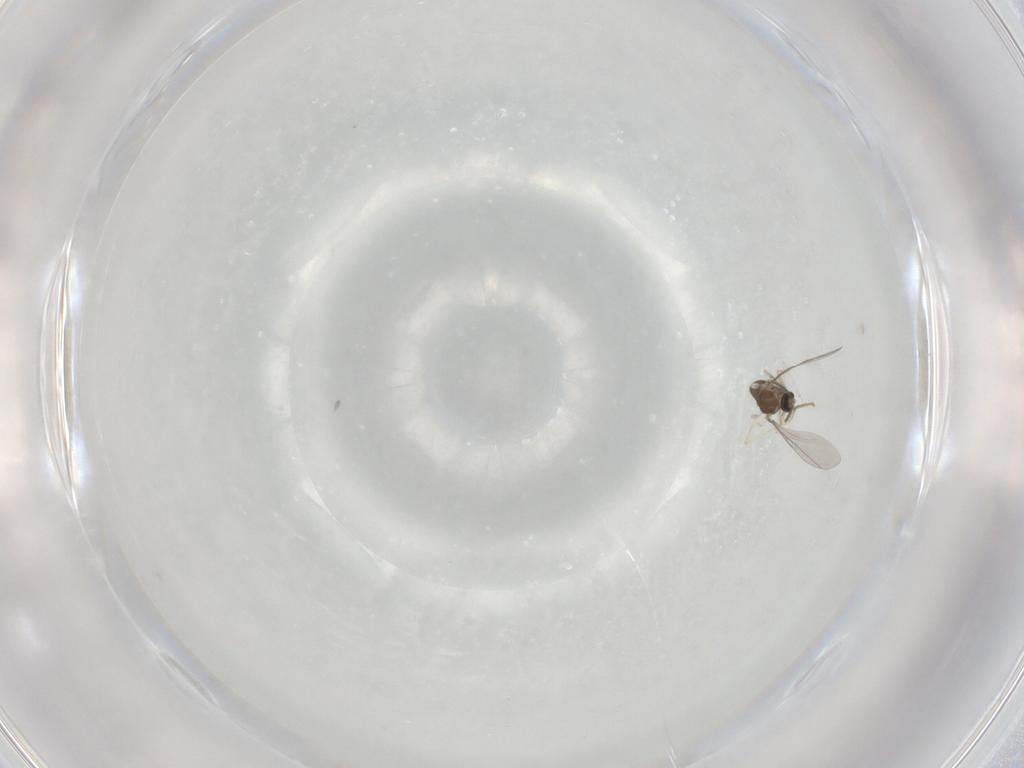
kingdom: Animalia
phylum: Arthropoda
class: Insecta
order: Diptera
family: Cecidomyiidae
